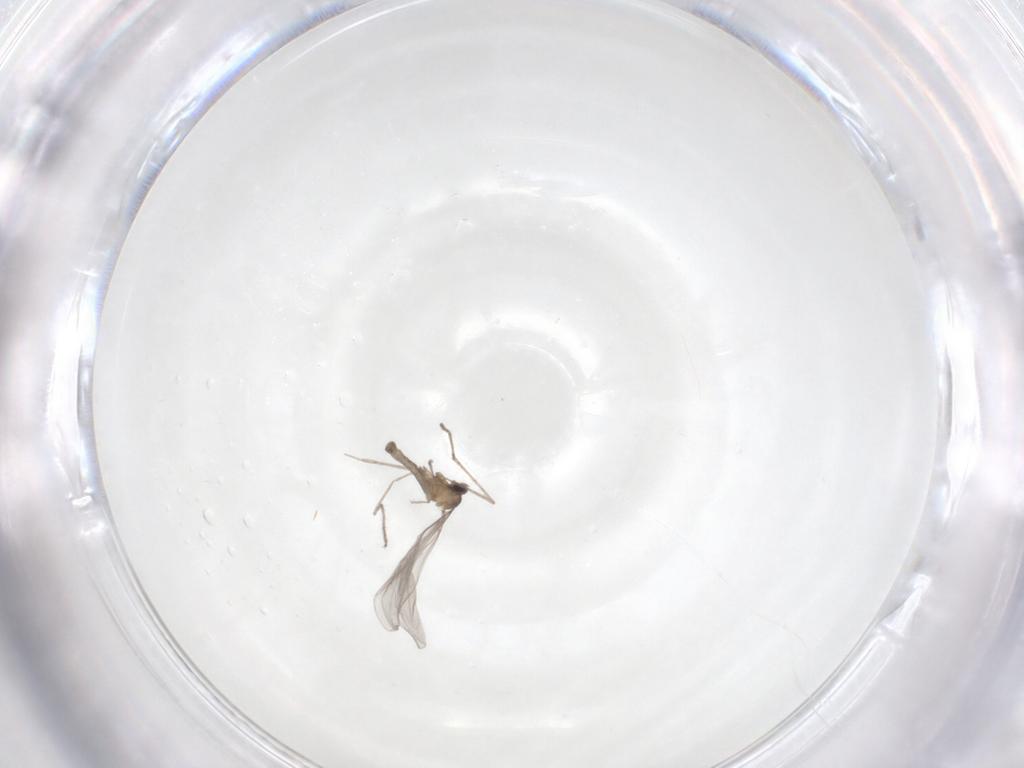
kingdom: Animalia
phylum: Arthropoda
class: Insecta
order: Diptera
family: Cecidomyiidae
